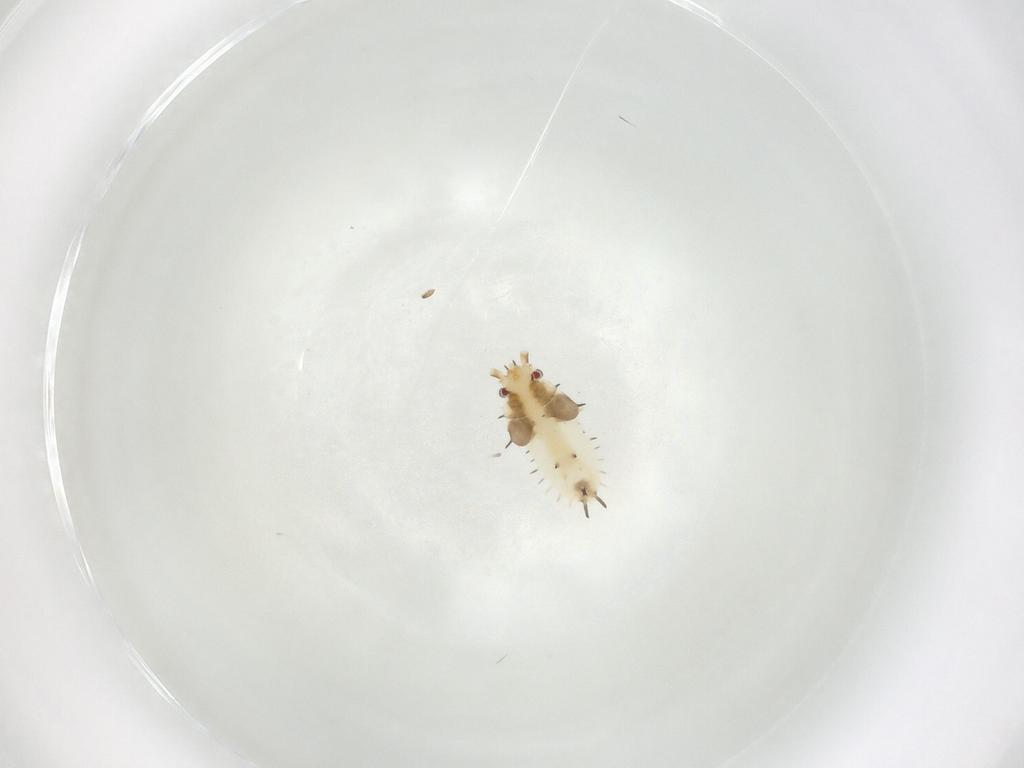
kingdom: Animalia
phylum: Arthropoda
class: Insecta
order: Hemiptera
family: Tingidae
